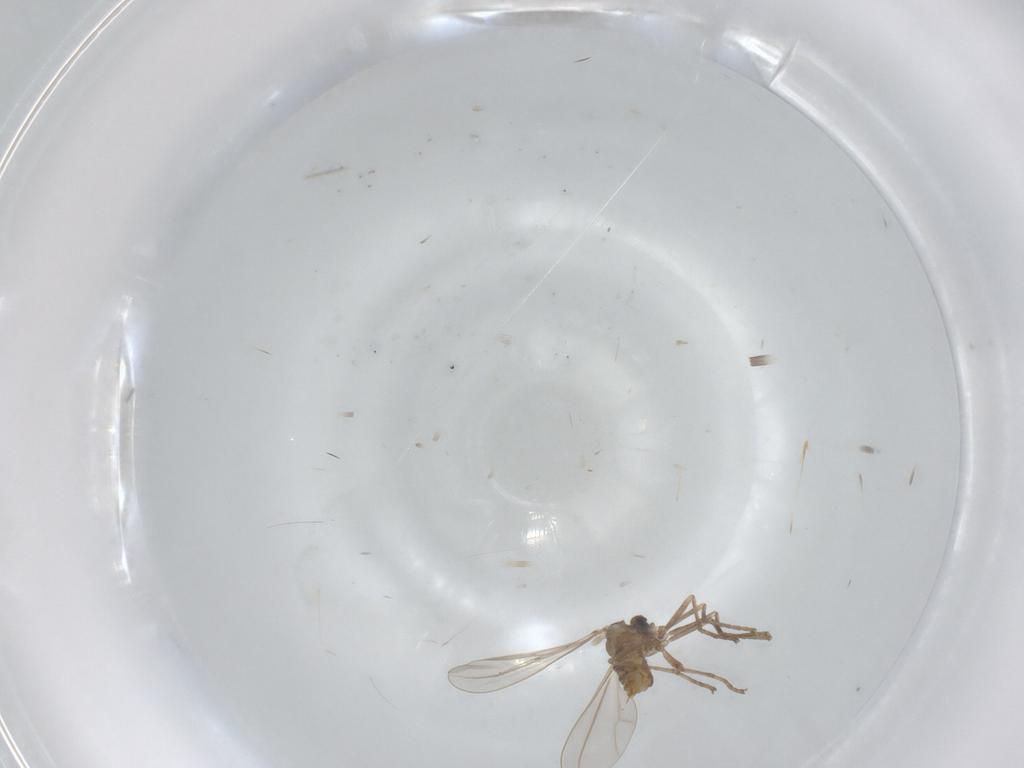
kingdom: Animalia
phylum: Arthropoda
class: Insecta
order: Diptera
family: Cecidomyiidae
